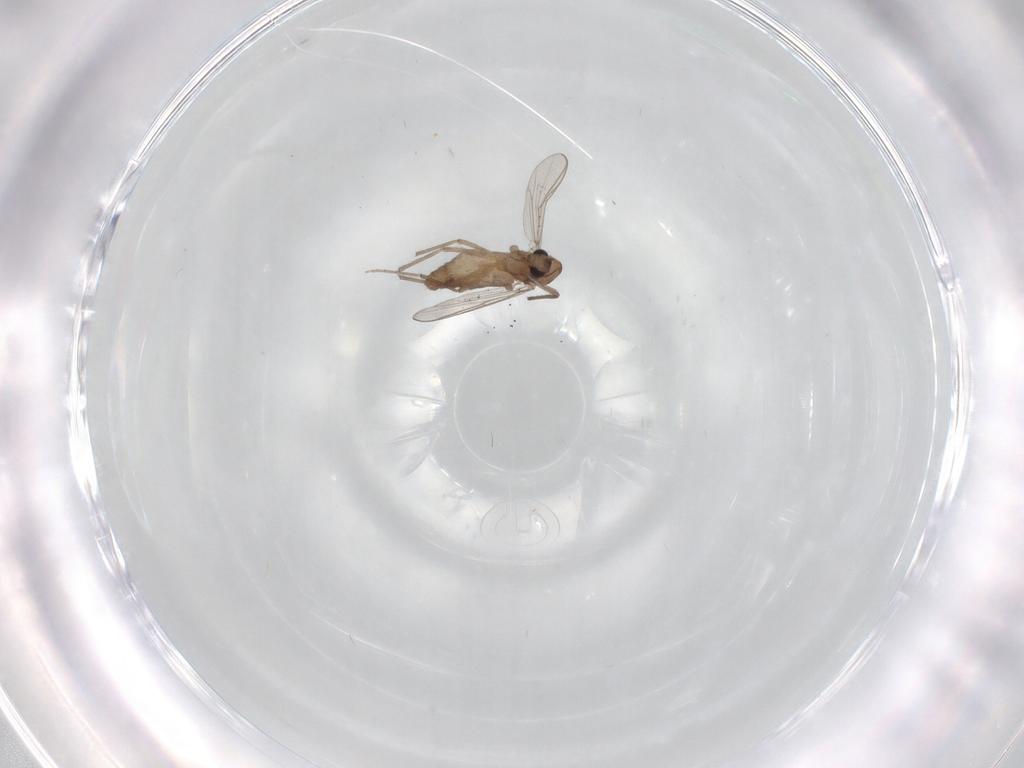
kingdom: Animalia
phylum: Arthropoda
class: Insecta
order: Diptera
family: Chironomidae
